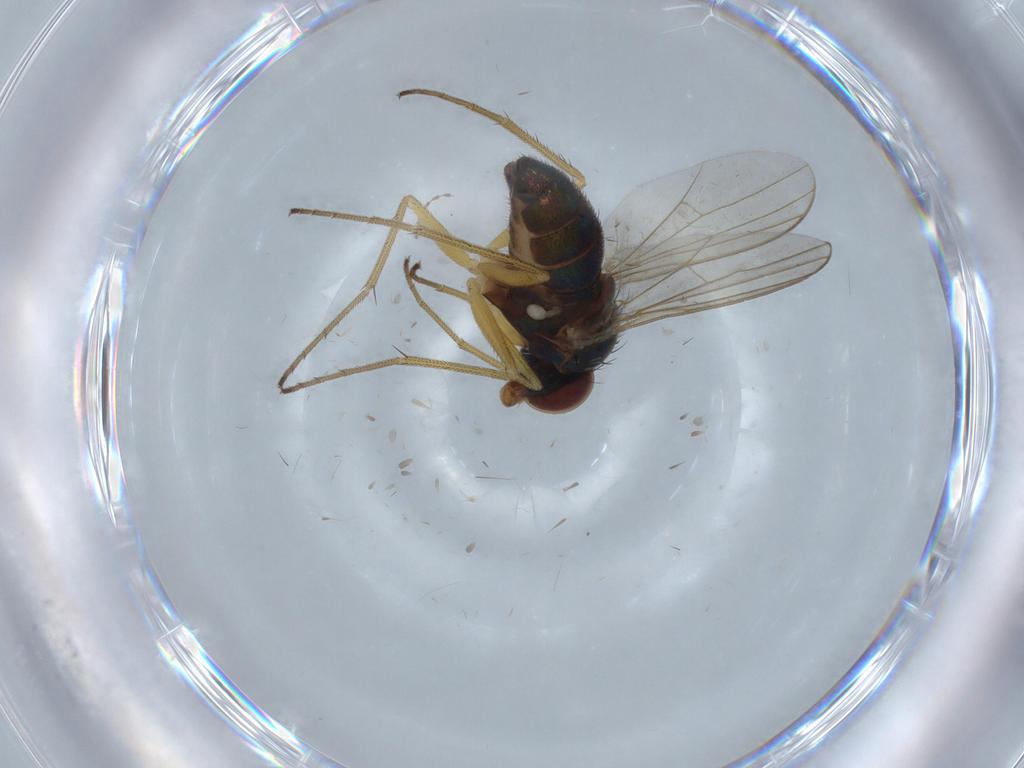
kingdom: Animalia
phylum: Arthropoda
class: Insecta
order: Diptera
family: Dolichopodidae
